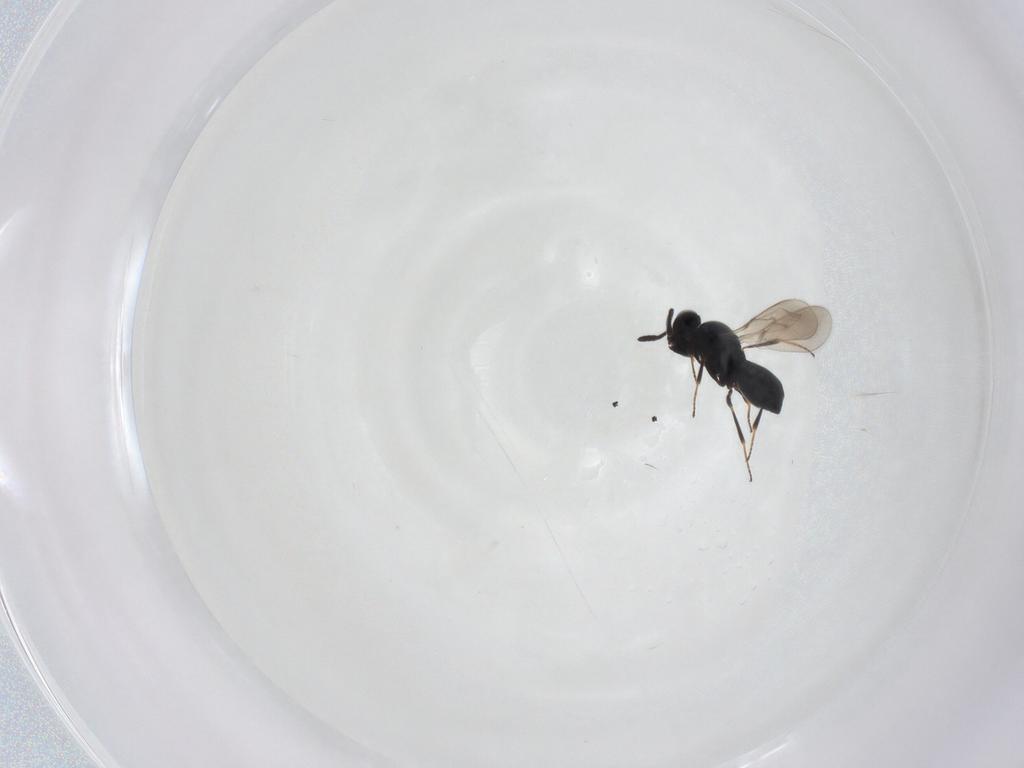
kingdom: Animalia
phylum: Arthropoda
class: Insecta
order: Hymenoptera
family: Scelionidae
